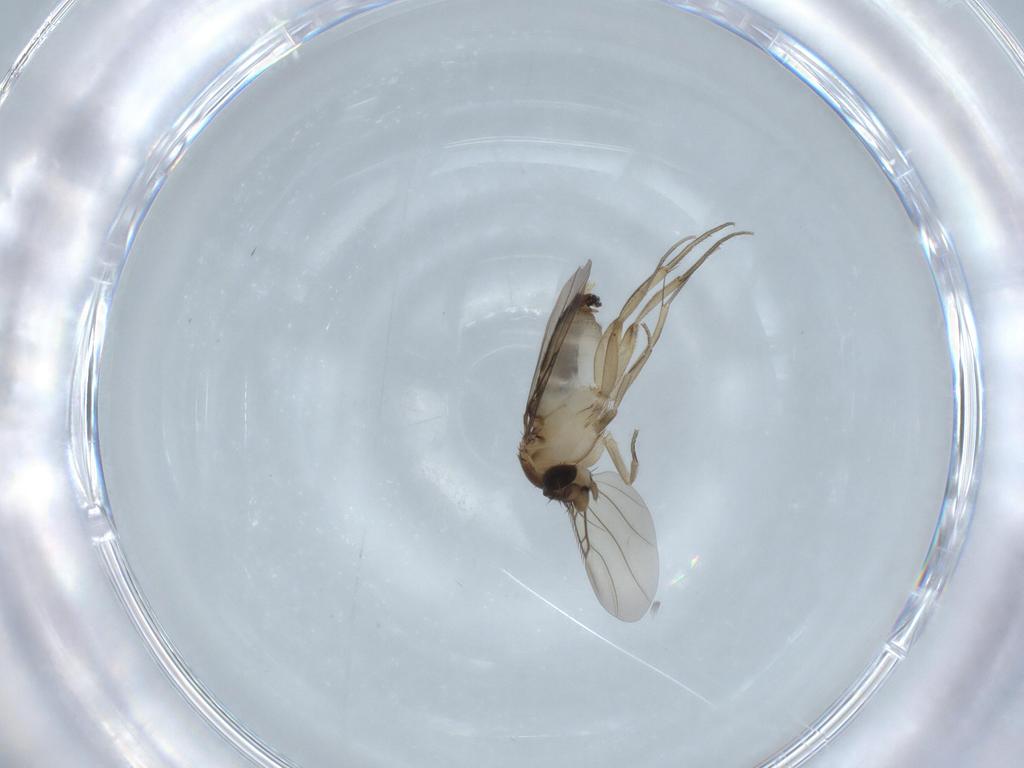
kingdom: Animalia
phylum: Arthropoda
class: Insecta
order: Diptera
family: Phoridae
